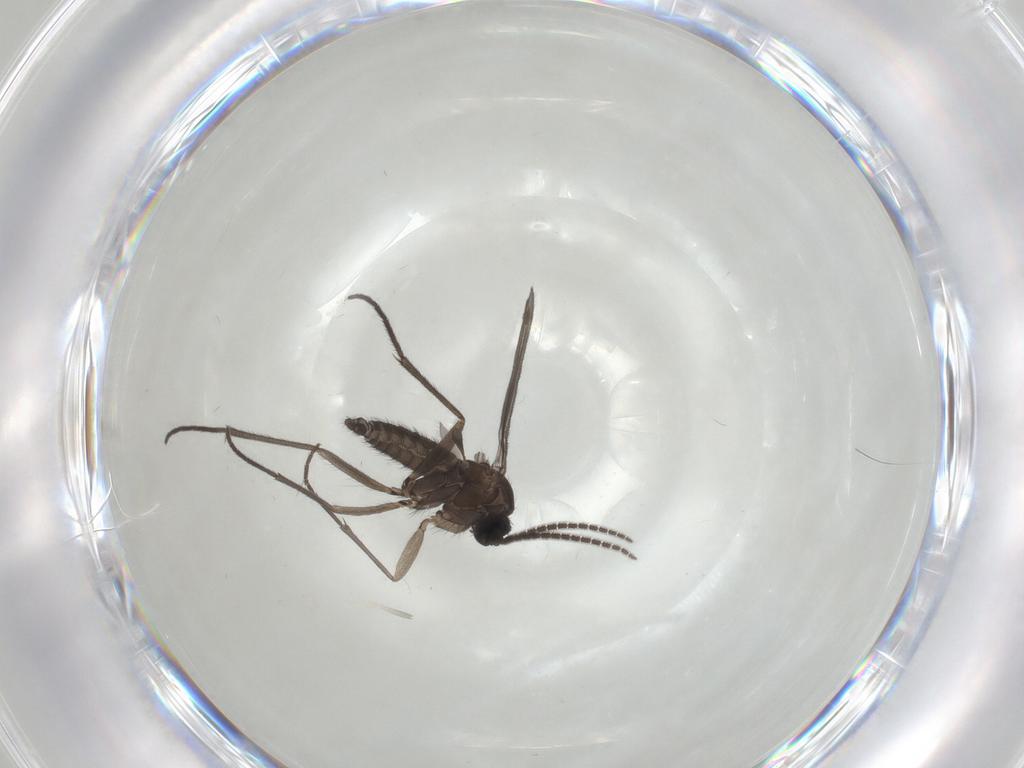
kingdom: Animalia
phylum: Arthropoda
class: Insecta
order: Diptera
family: Sciaridae
